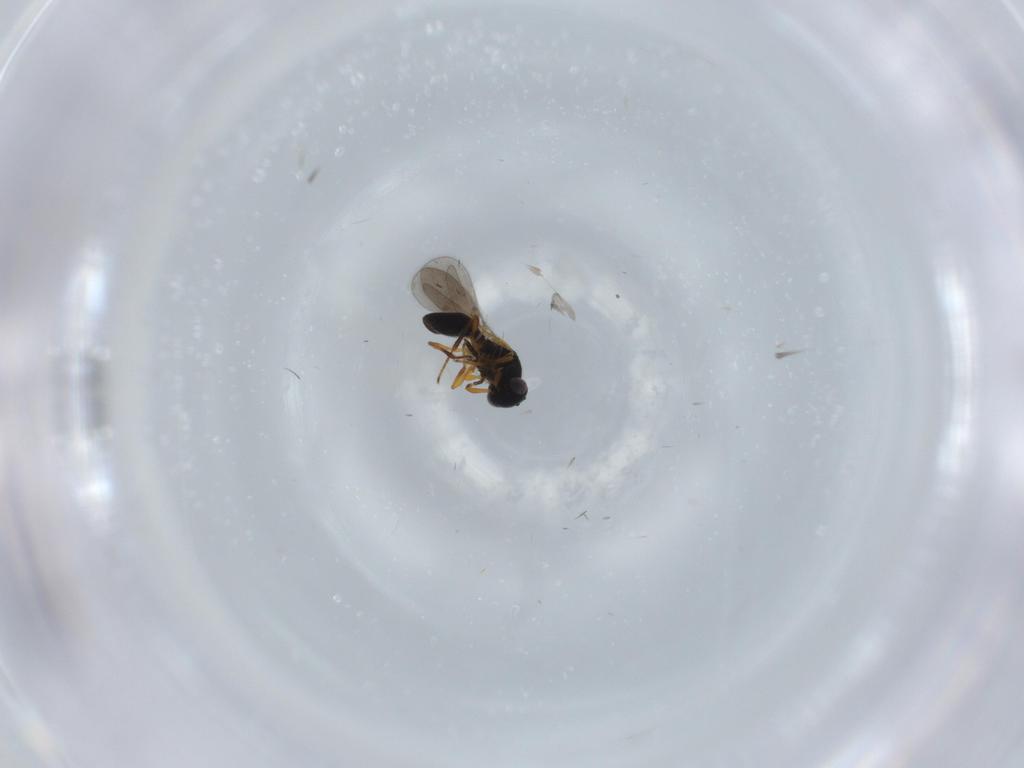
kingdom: Animalia
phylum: Arthropoda
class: Insecta
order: Hymenoptera
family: Platygastridae
